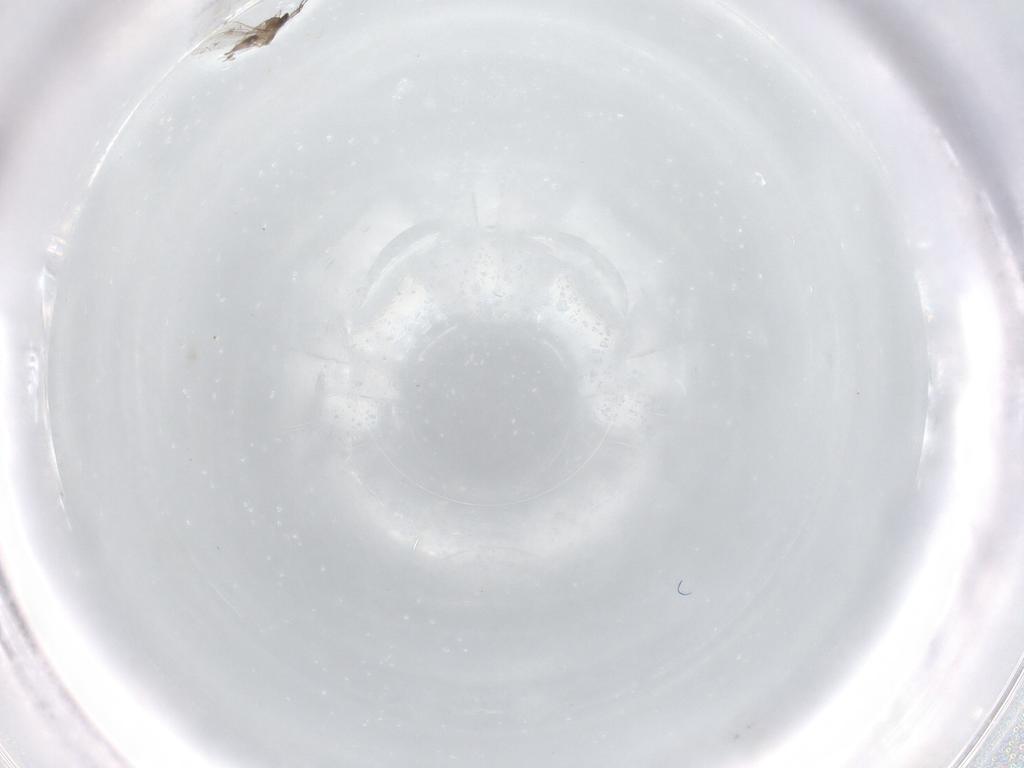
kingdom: Animalia
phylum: Arthropoda
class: Insecta
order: Diptera
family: Cecidomyiidae
